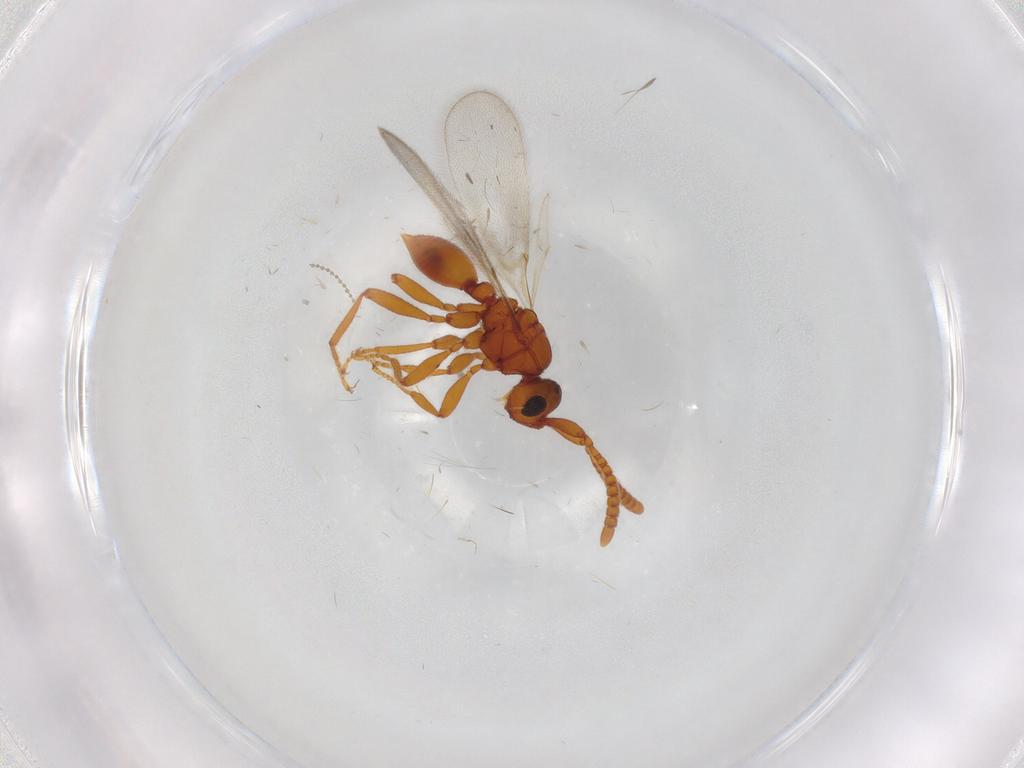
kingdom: Animalia
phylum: Arthropoda
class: Insecta
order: Hymenoptera
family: Diapriidae
